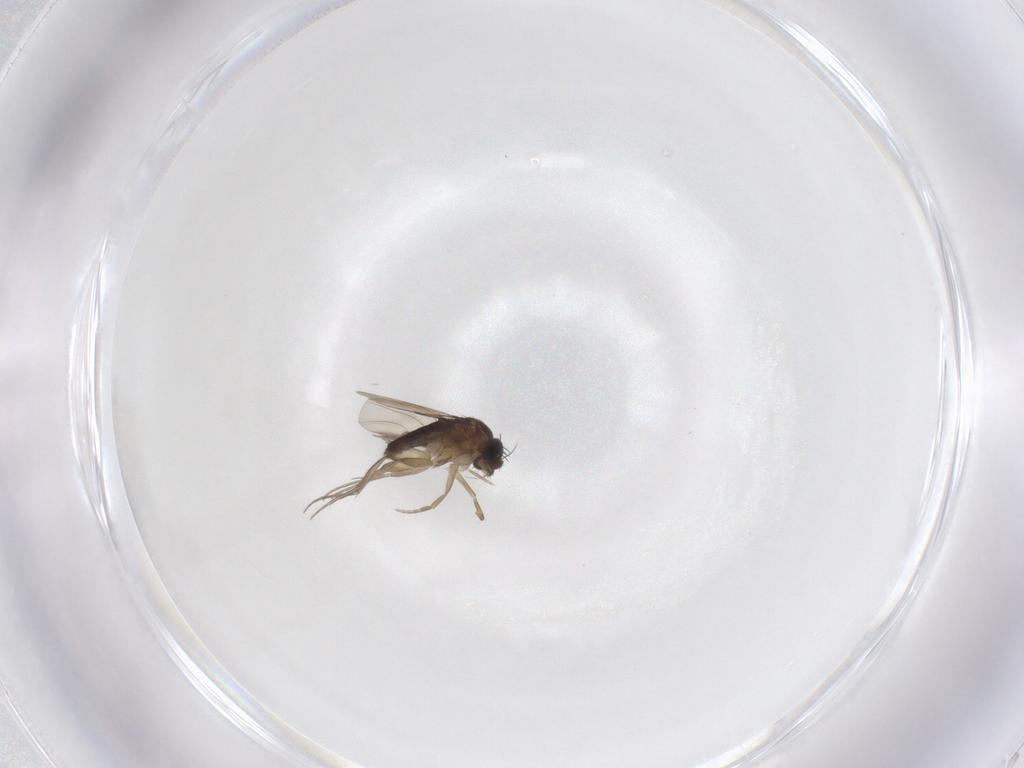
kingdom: Animalia
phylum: Arthropoda
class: Insecta
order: Diptera
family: Phoridae
